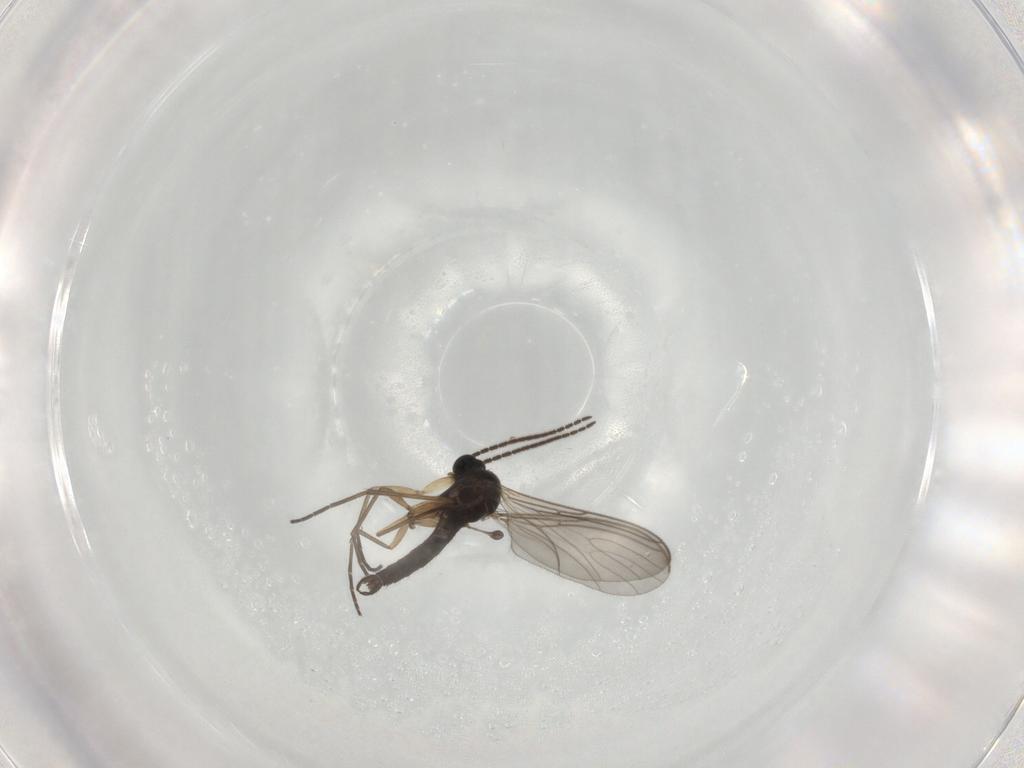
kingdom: Animalia
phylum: Arthropoda
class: Insecta
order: Diptera
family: Sciaridae
